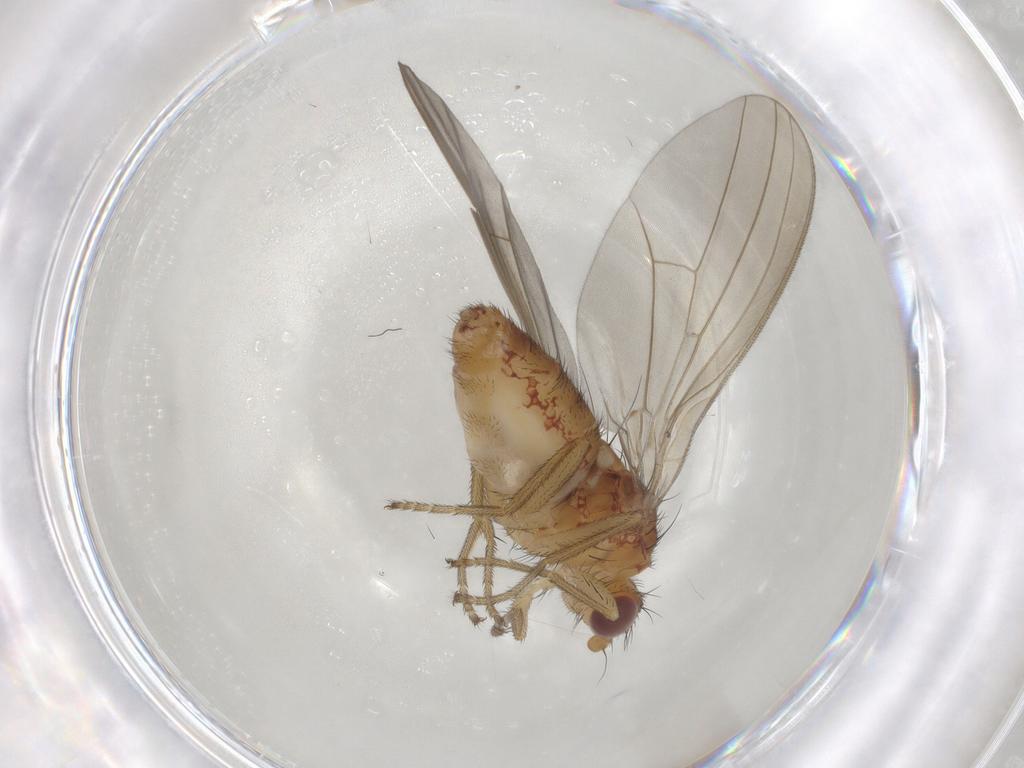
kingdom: Animalia
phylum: Arthropoda
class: Insecta
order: Diptera
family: Natalimyzidae
